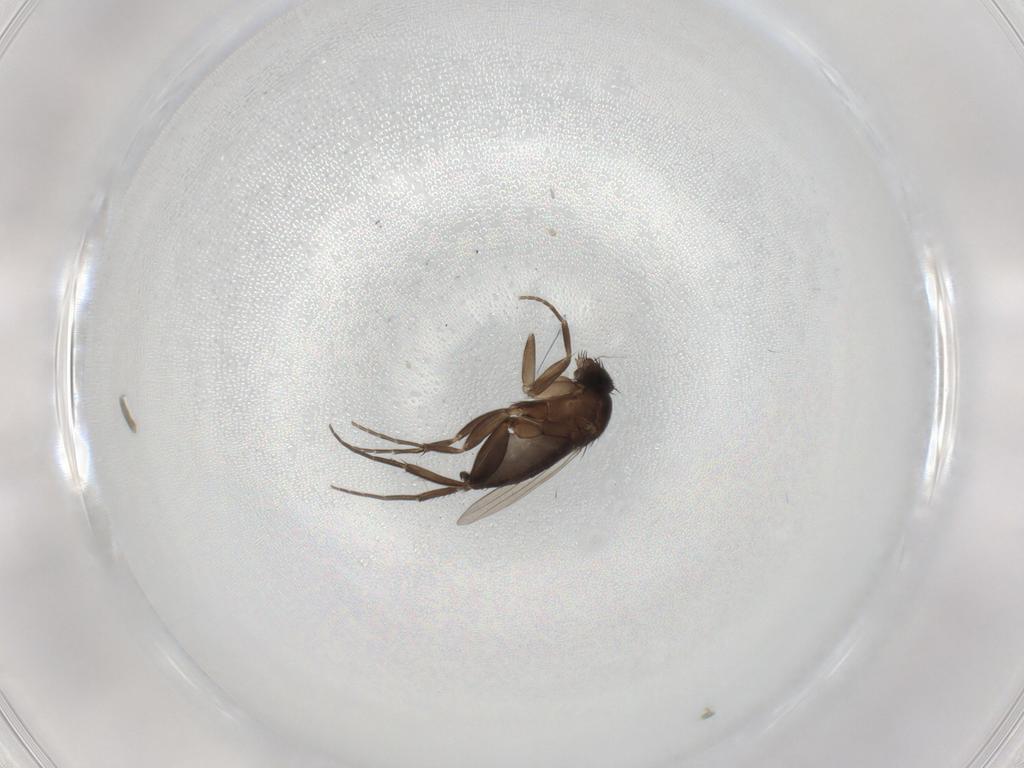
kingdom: Animalia
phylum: Arthropoda
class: Insecta
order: Diptera
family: Phoridae
